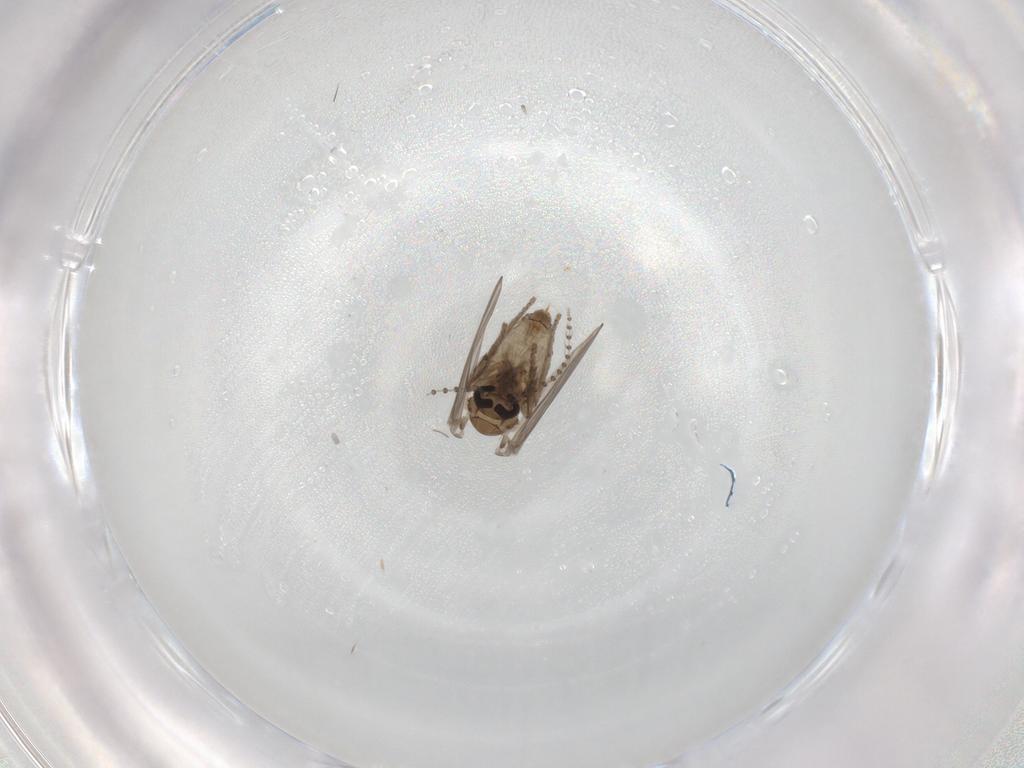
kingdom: Animalia
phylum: Arthropoda
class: Insecta
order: Diptera
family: Psychodidae
